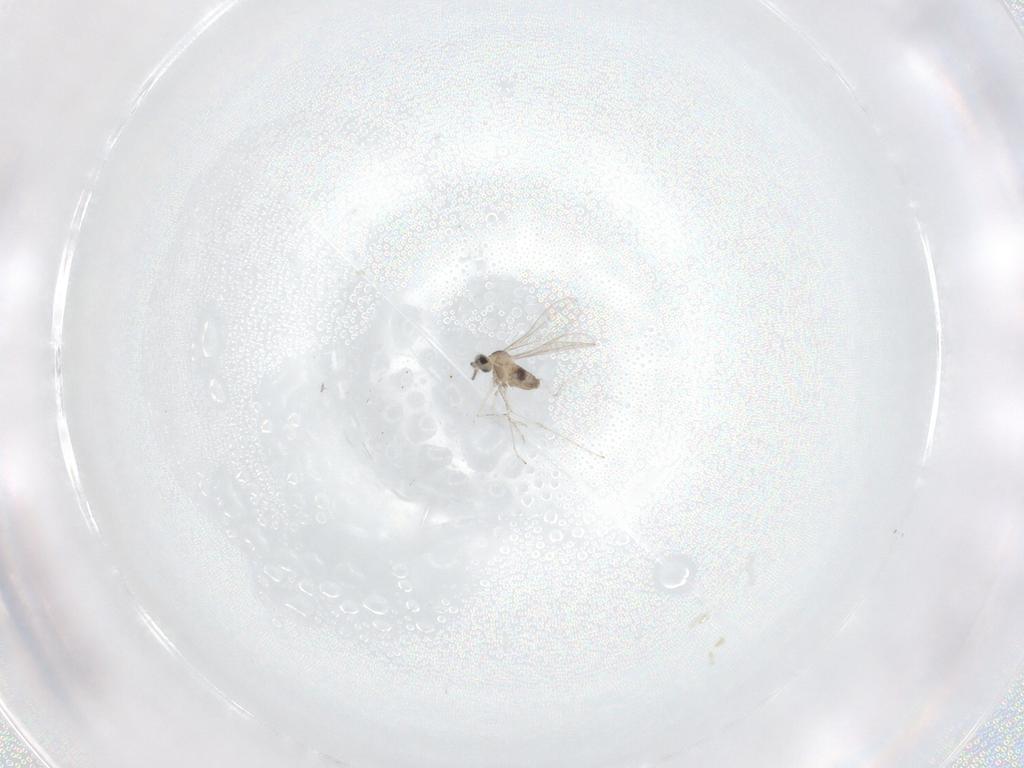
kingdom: Animalia
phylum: Arthropoda
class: Insecta
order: Diptera
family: Cecidomyiidae
